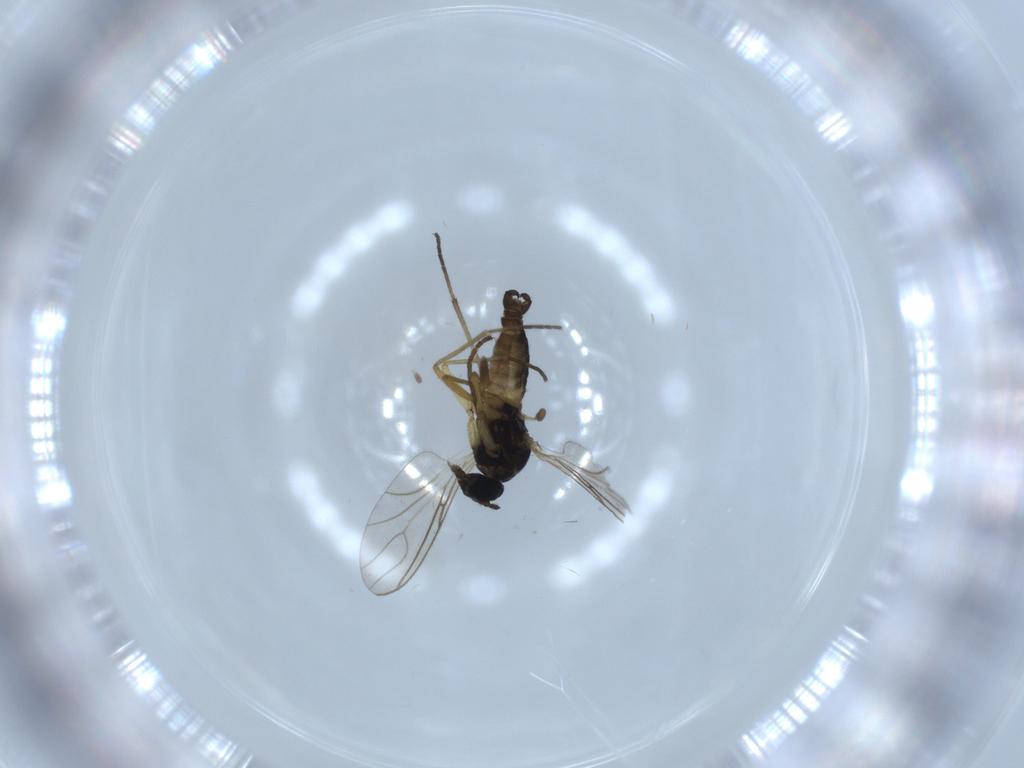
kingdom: Animalia
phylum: Arthropoda
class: Insecta
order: Diptera
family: Sciaridae
